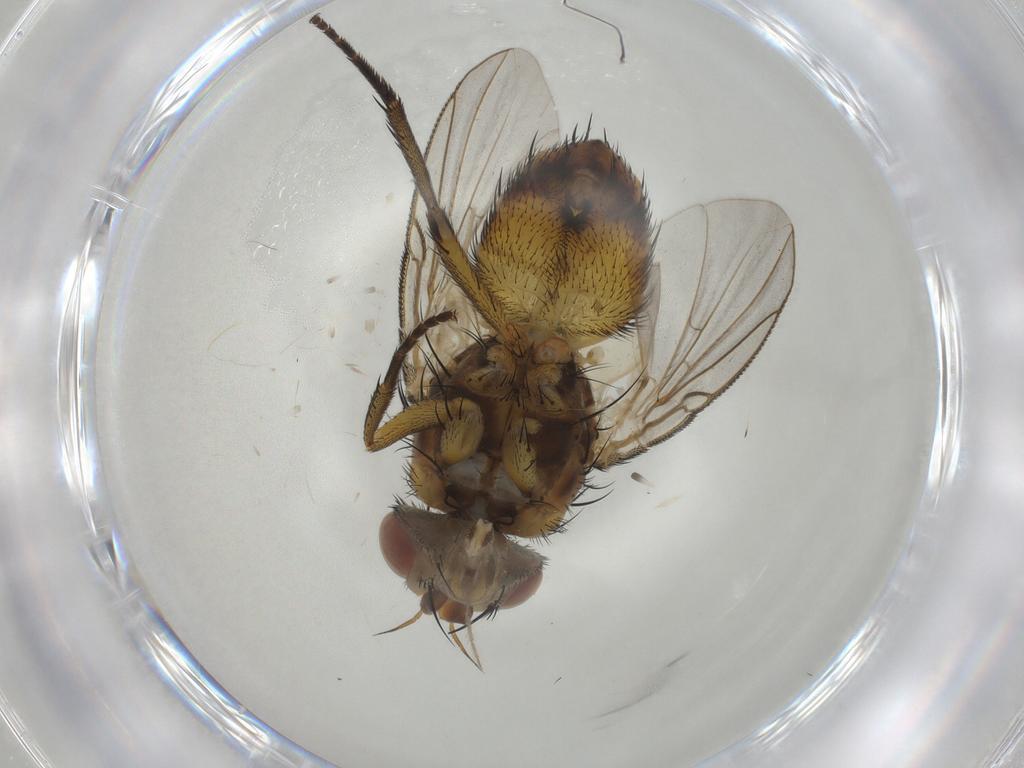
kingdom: Animalia
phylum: Arthropoda
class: Insecta
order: Diptera
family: Tachinidae
